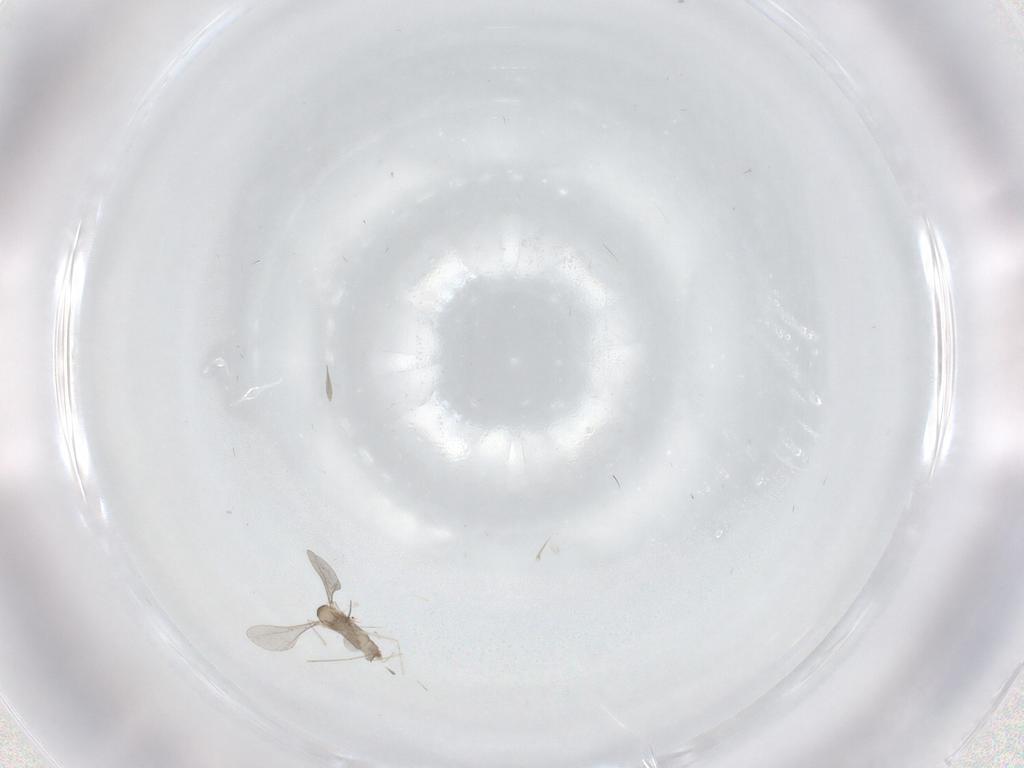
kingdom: Animalia
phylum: Arthropoda
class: Insecta
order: Diptera
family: Cecidomyiidae
